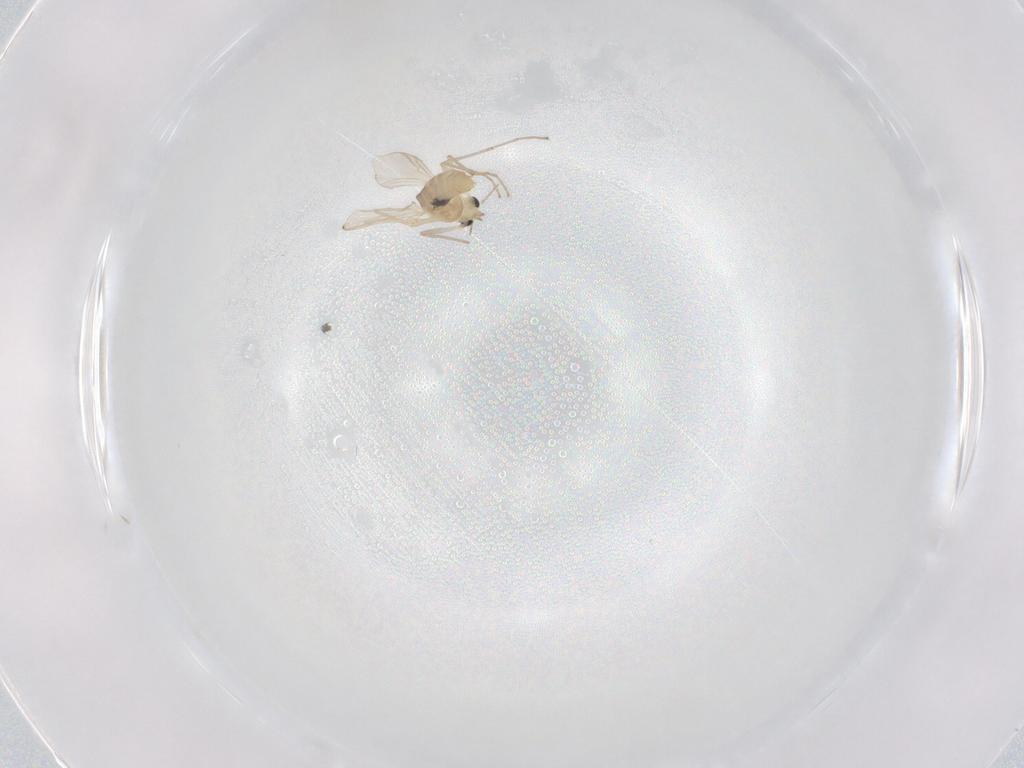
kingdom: Animalia
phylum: Arthropoda
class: Insecta
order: Diptera
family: Chironomidae
